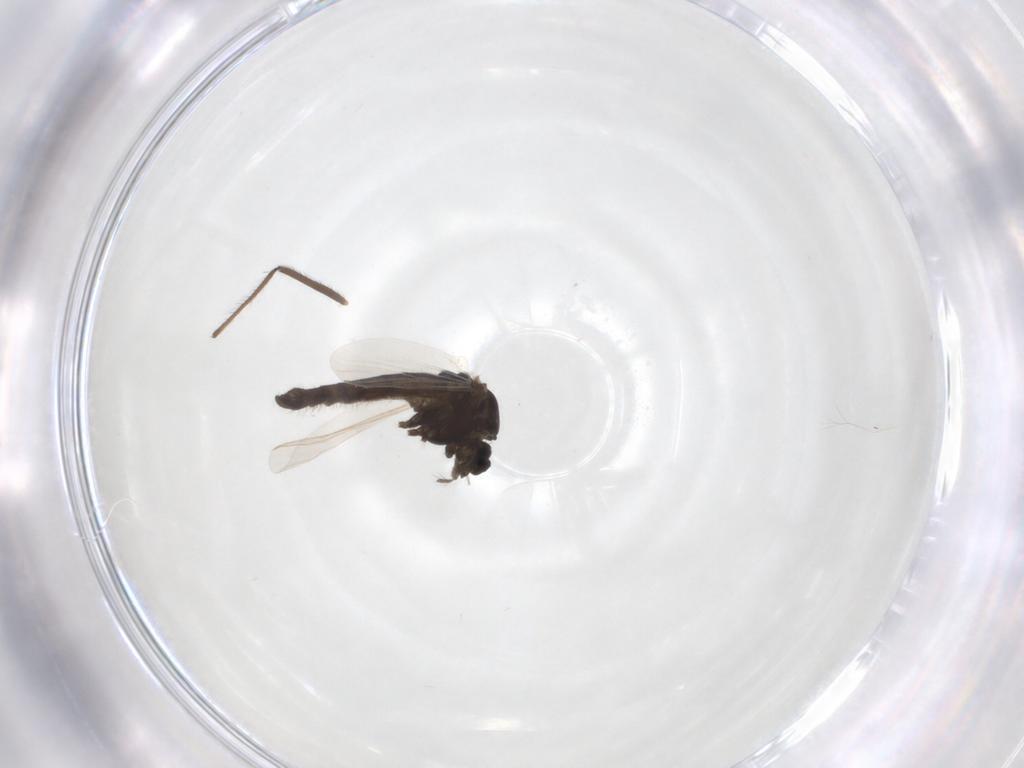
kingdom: Animalia
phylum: Arthropoda
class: Insecta
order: Diptera
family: Chironomidae
